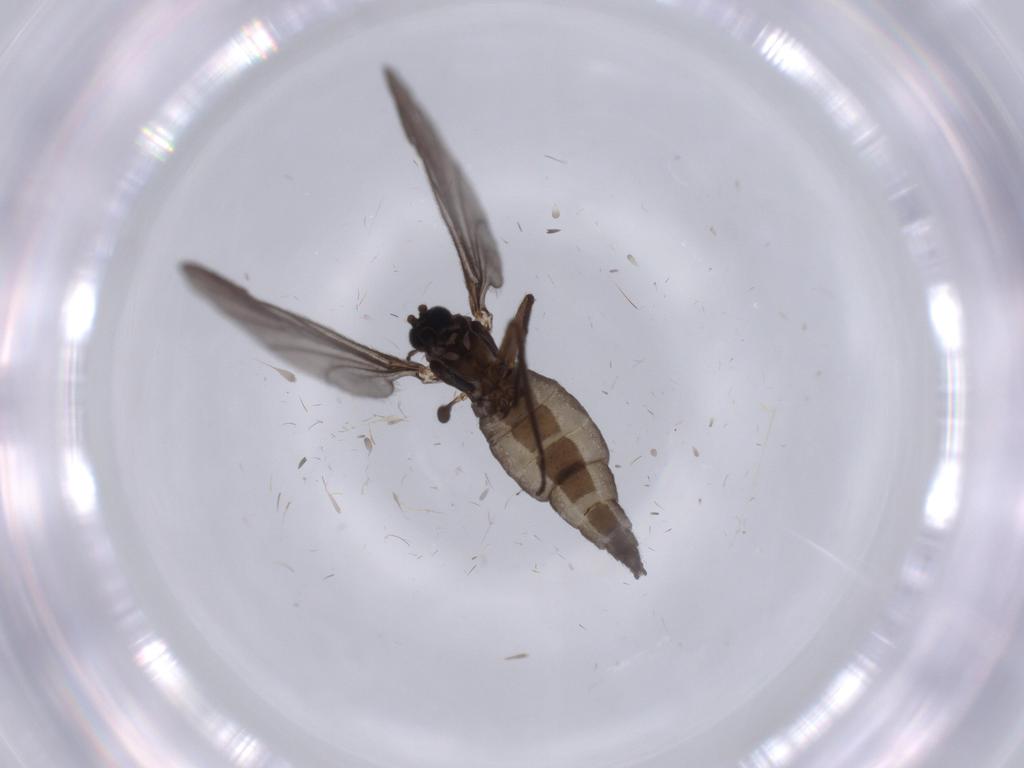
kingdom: Animalia
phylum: Arthropoda
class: Insecta
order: Diptera
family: Sciaridae
